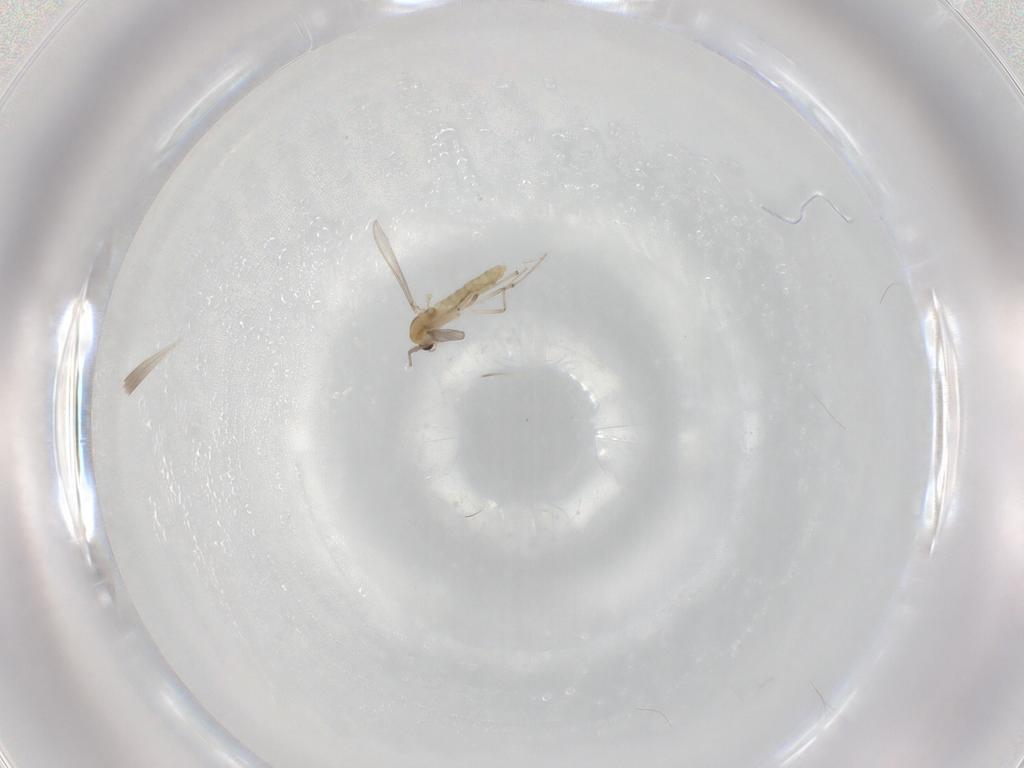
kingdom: Animalia
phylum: Arthropoda
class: Insecta
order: Diptera
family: Chironomidae
